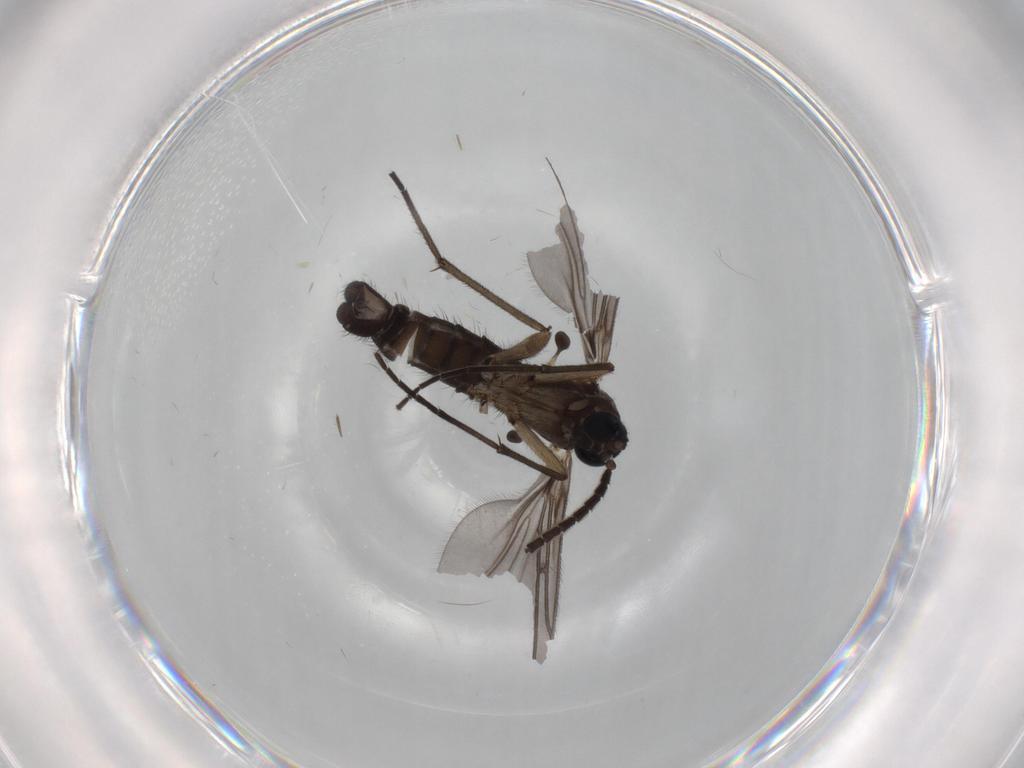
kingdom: Animalia
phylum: Arthropoda
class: Insecta
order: Diptera
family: Sciaridae
